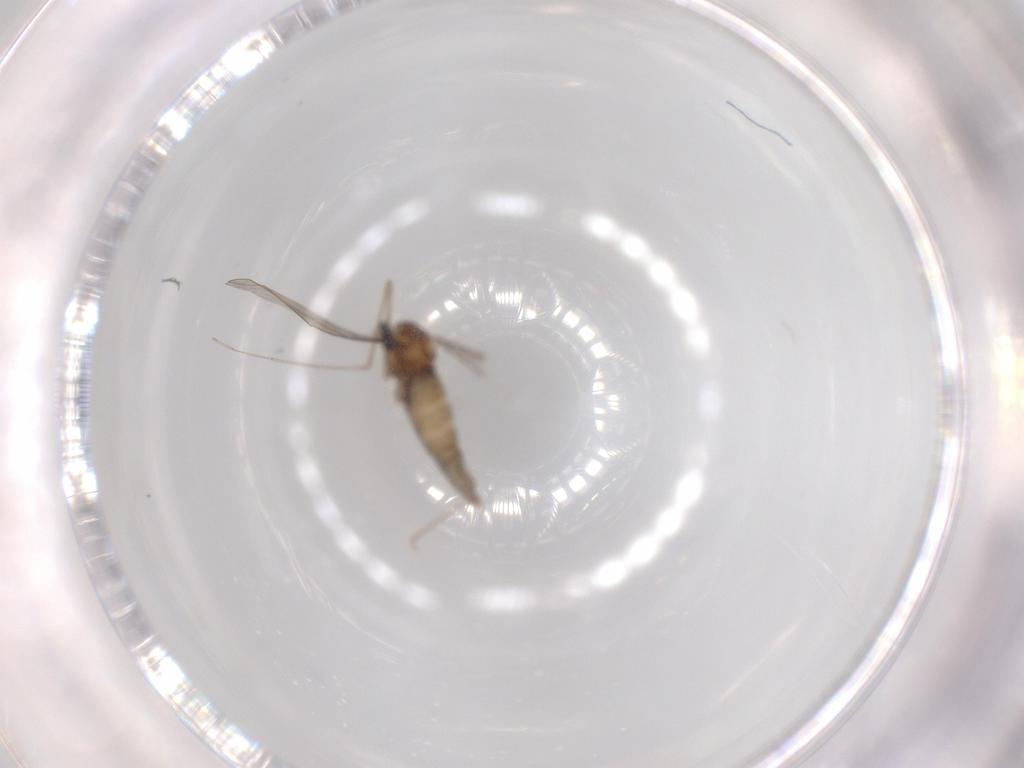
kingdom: Animalia
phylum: Arthropoda
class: Insecta
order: Diptera
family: Cecidomyiidae
